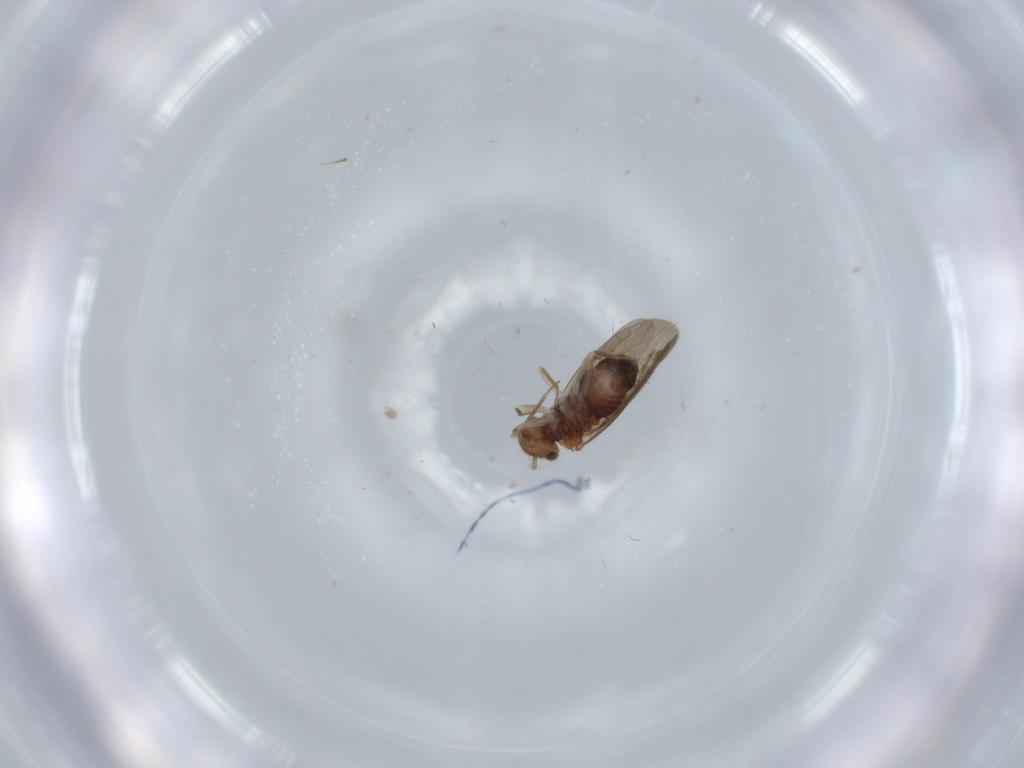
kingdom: Animalia
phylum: Arthropoda
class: Insecta
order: Psocodea
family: Ectopsocidae
